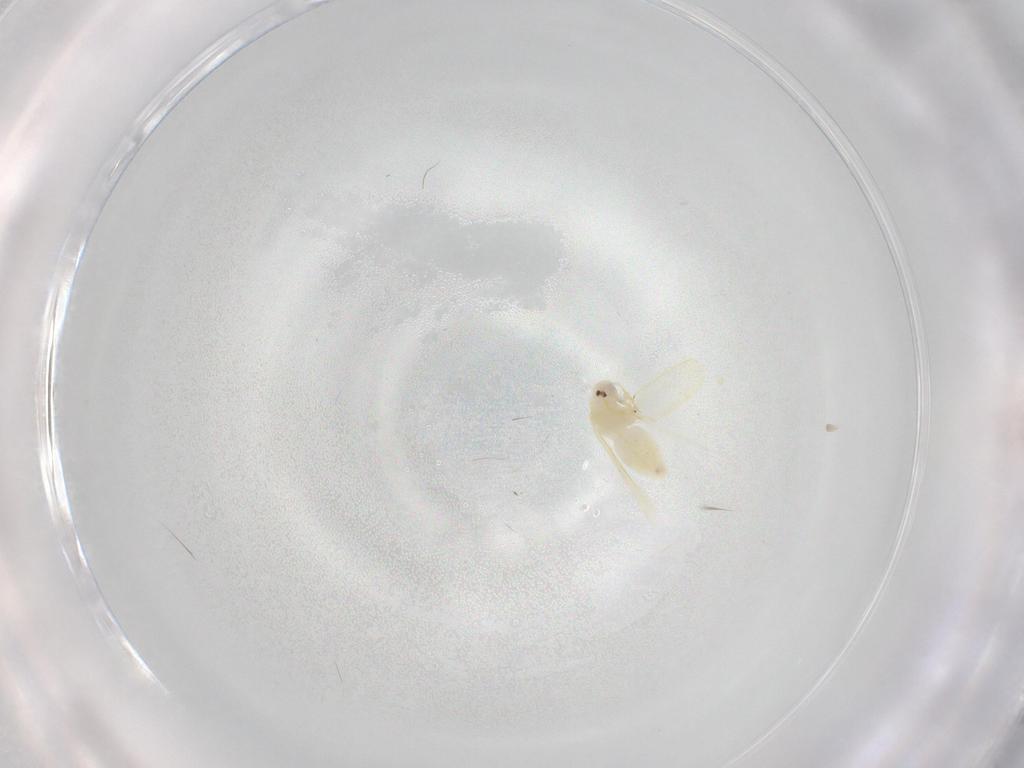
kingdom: Animalia
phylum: Arthropoda
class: Insecta
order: Hemiptera
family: Aleyrodidae
